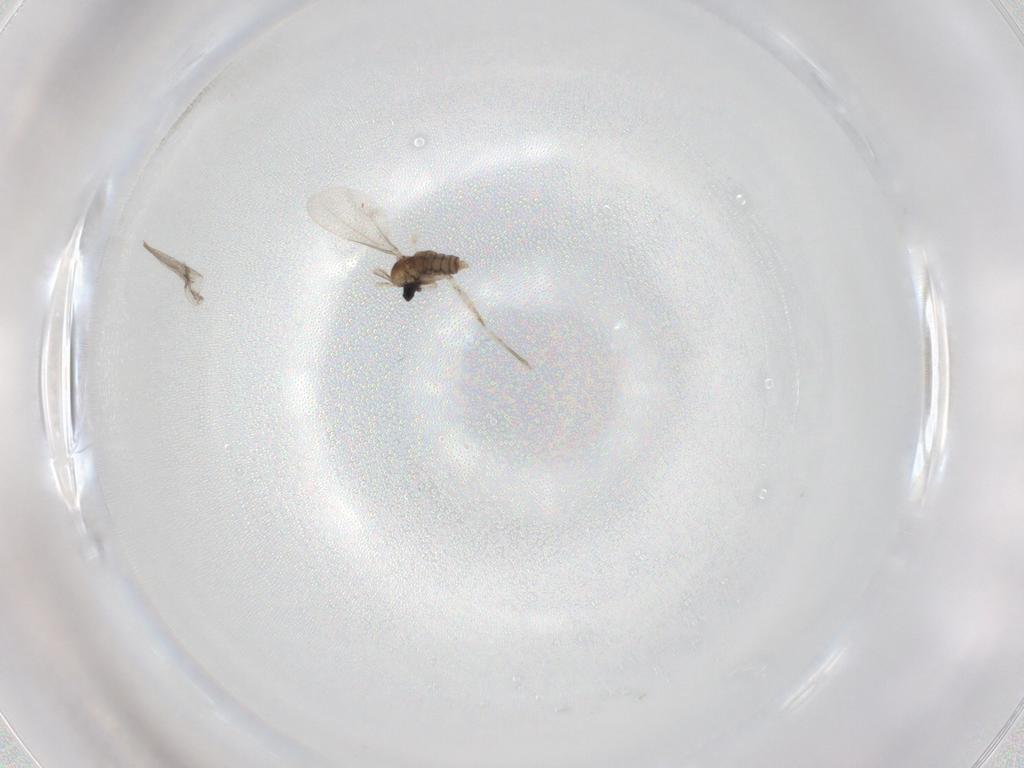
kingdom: Animalia
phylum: Arthropoda
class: Insecta
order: Diptera
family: Cecidomyiidae
